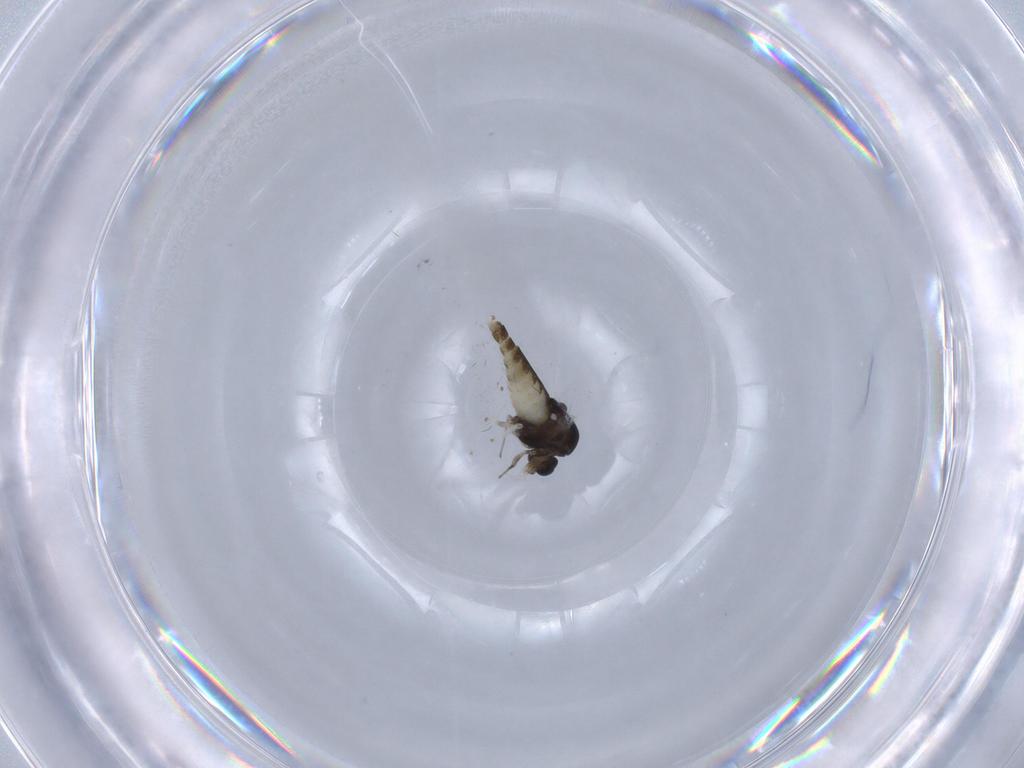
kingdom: Animalia
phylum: Arthropoda
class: Insecta
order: Diptera
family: Chironomidae
